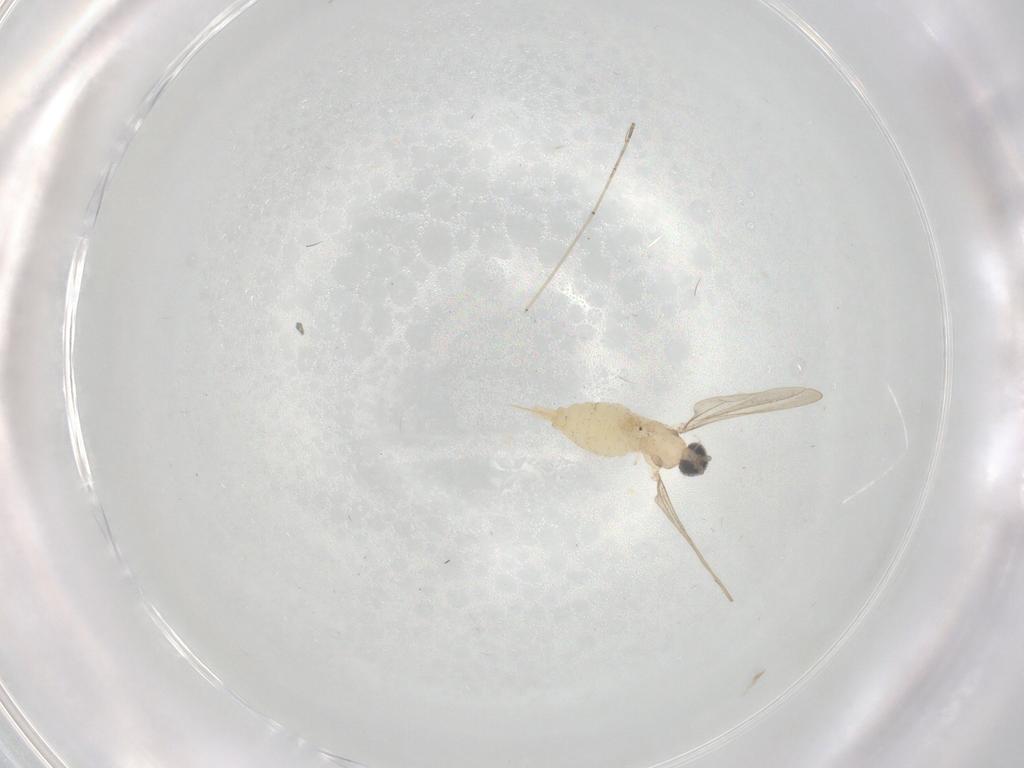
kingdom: Animalia
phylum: Arthropoda
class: Insecta
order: Diptera
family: Cecidomyiidae
